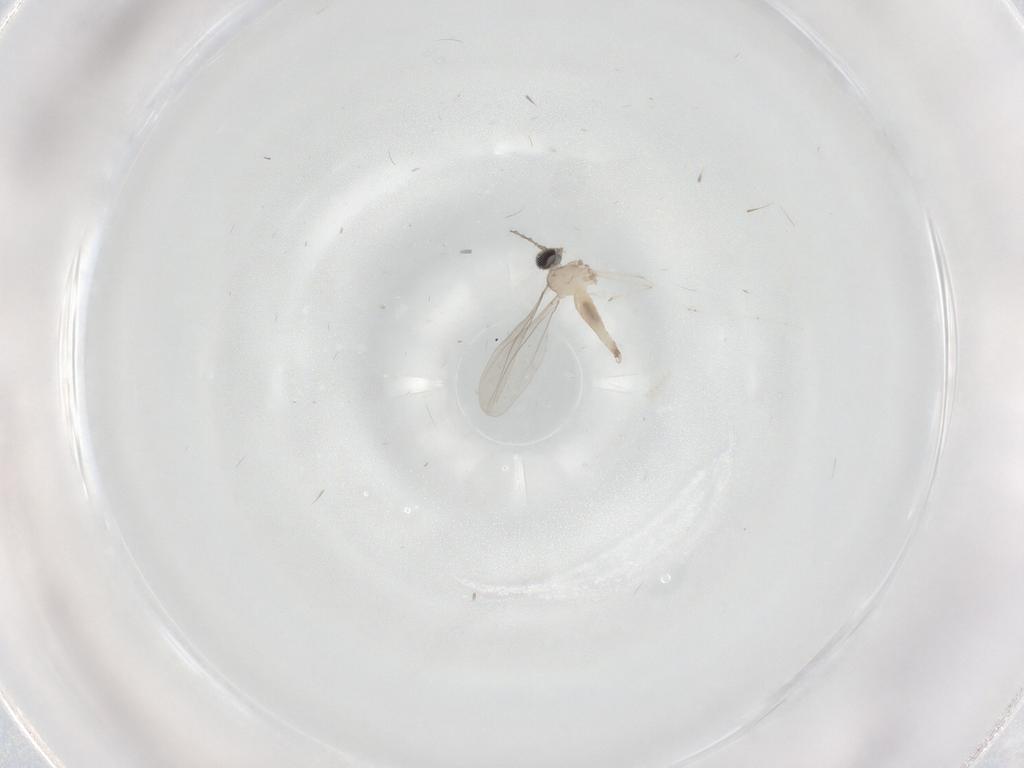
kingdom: Animalia
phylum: Arthropoda
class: Insecta
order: Diptera
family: Cecidomyiidae
